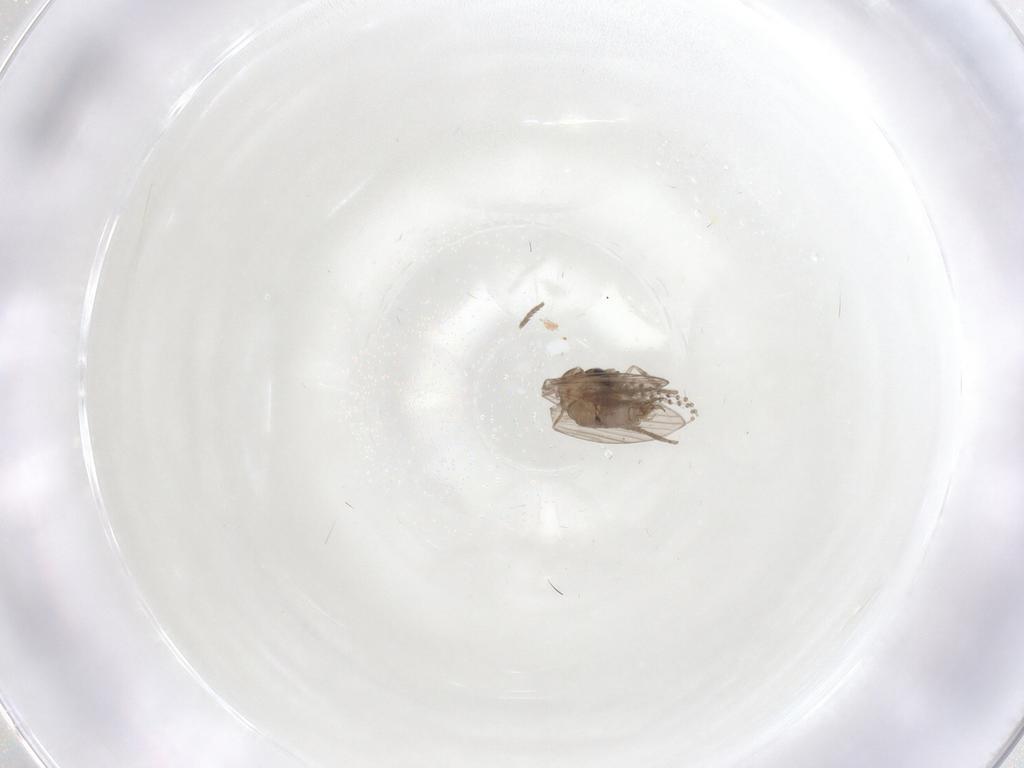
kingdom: Animalia
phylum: Arthropoda
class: Insecta
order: Diptera
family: Psychodidae
